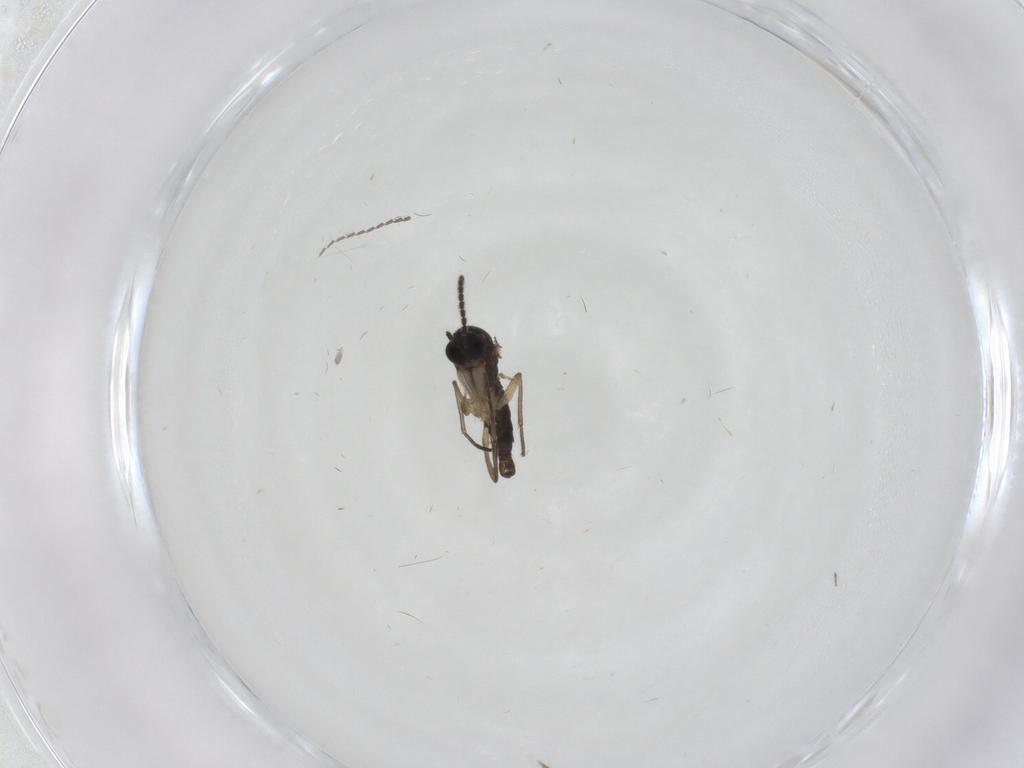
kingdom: Animalia
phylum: Arthropoda
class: Insecta
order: Diptera
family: Sciaridae
